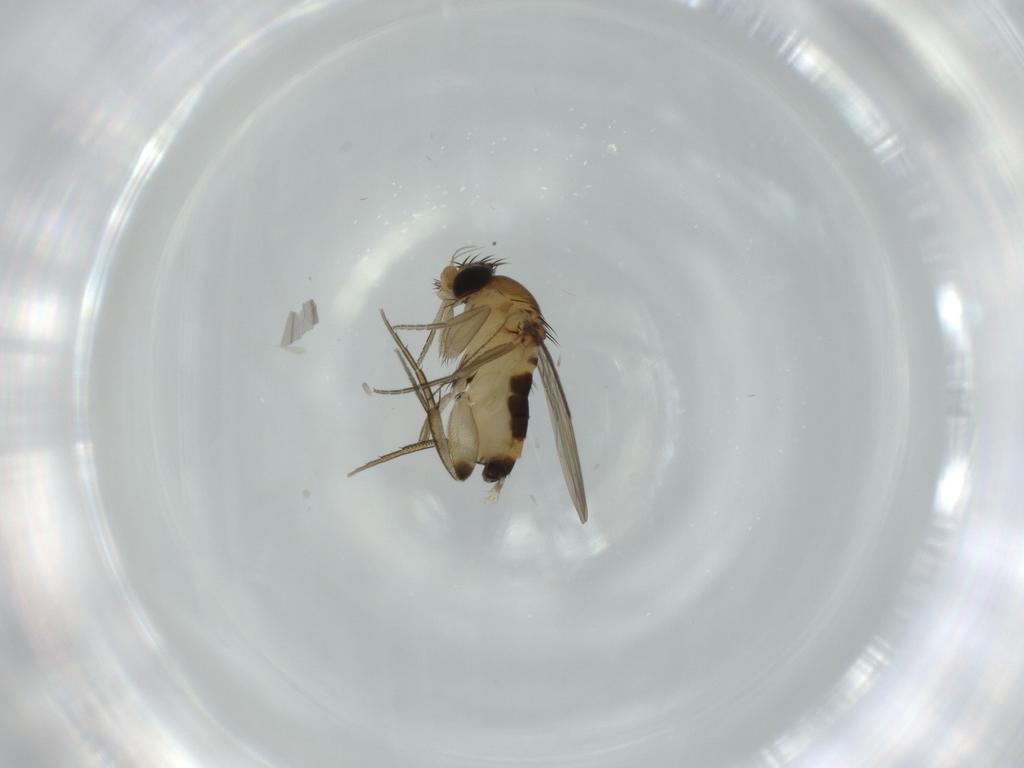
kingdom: Animalia
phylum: Arthropoda
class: Insecta
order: Diptera
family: Phoridae
